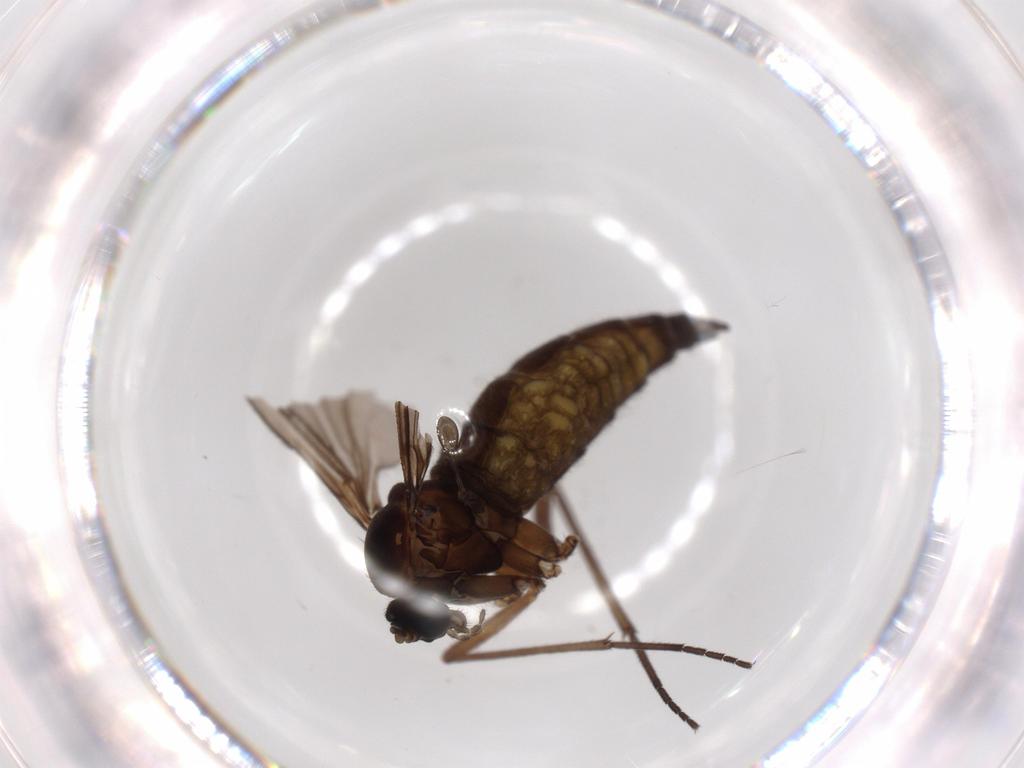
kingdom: Animalia
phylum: Arthropoda
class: Insecta
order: Diptera
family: Sciaridae
